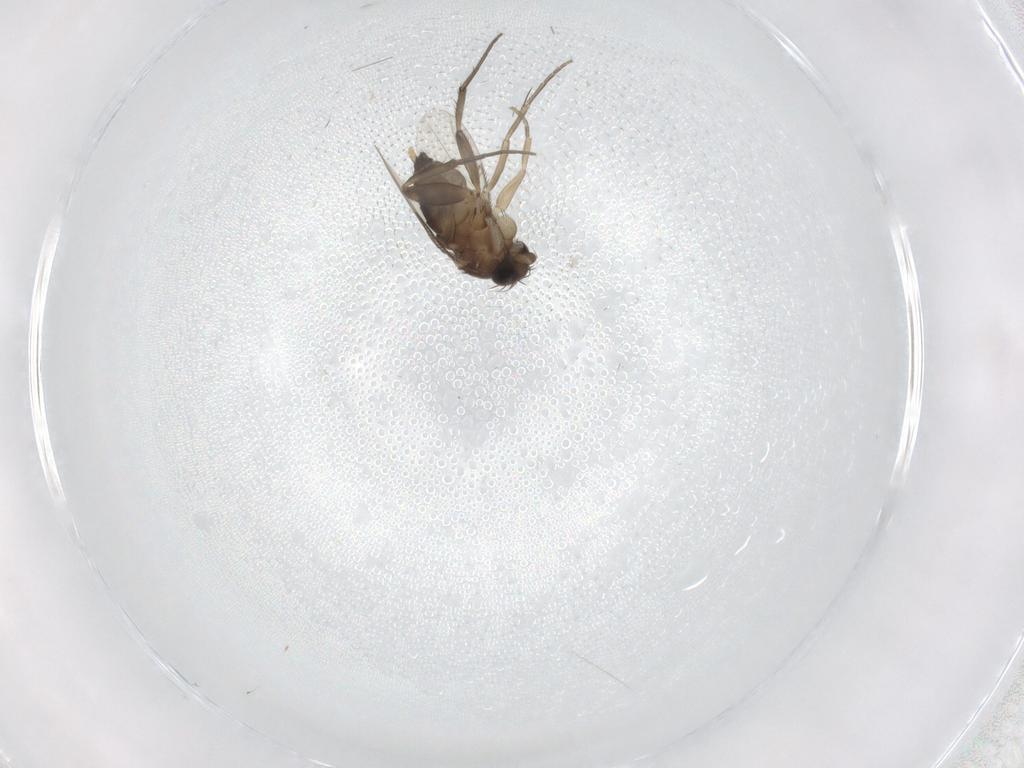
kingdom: Animalia
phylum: Arthropoda
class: Insecta
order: Diptera
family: Phoridae
